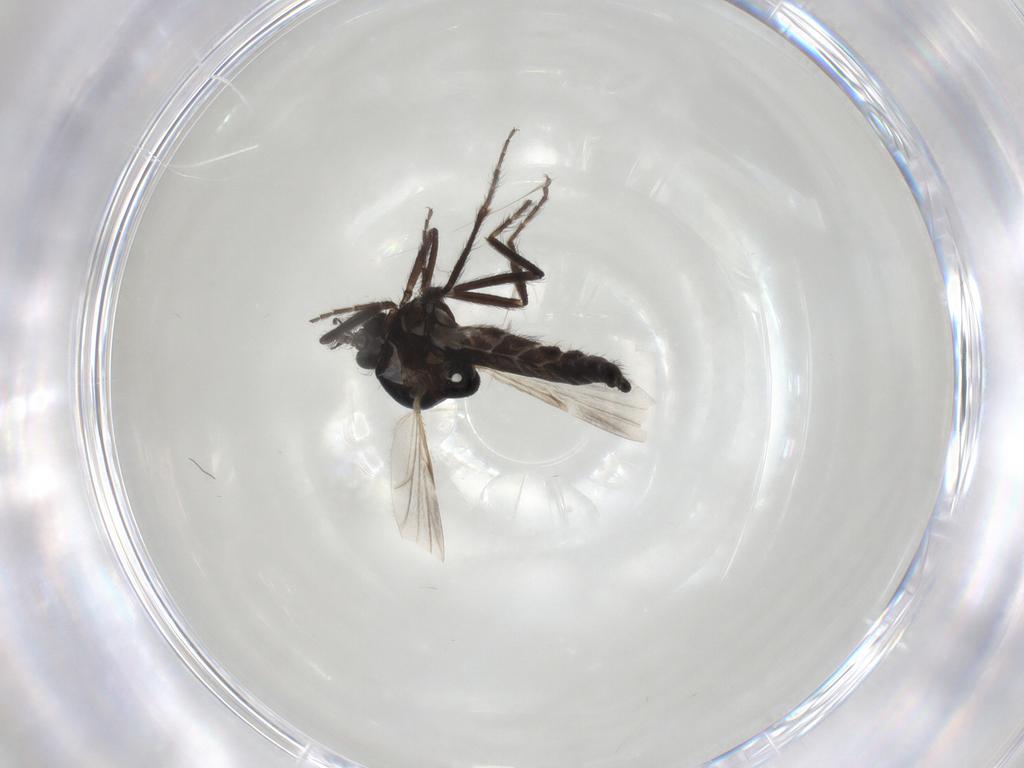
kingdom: Animalia
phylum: Arthropoda
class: Insecta
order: Diptera
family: Ceratopogonidae
